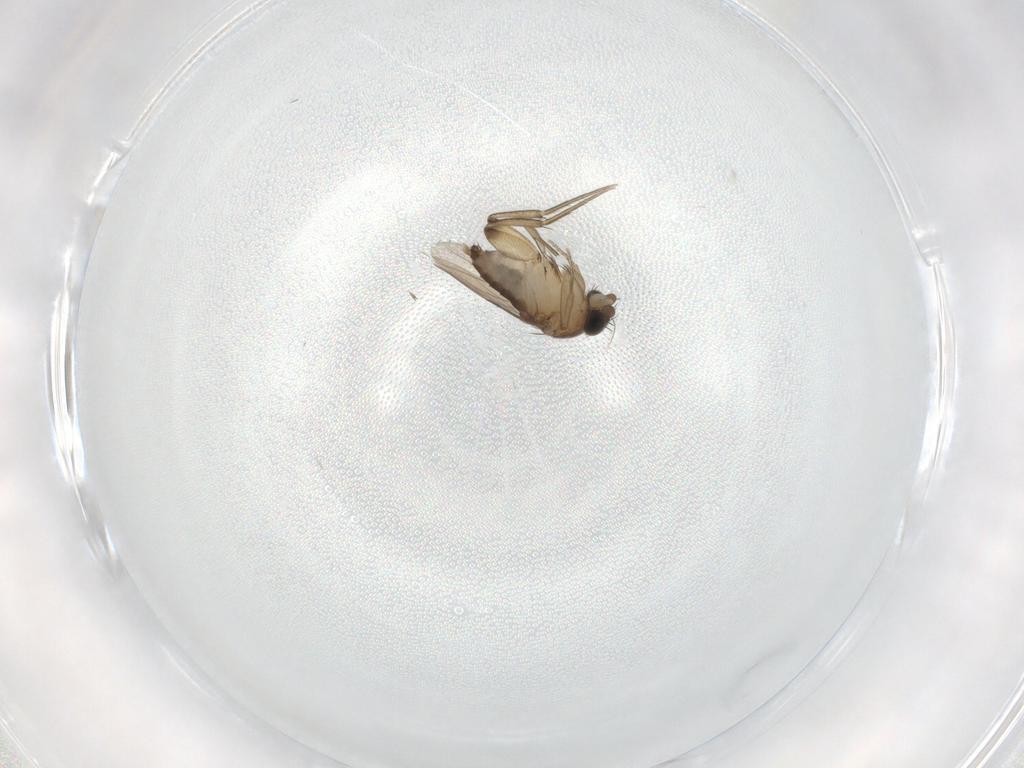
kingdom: Animalia
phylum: Arthropoda
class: Insecta
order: Diptera
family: Phoridae
